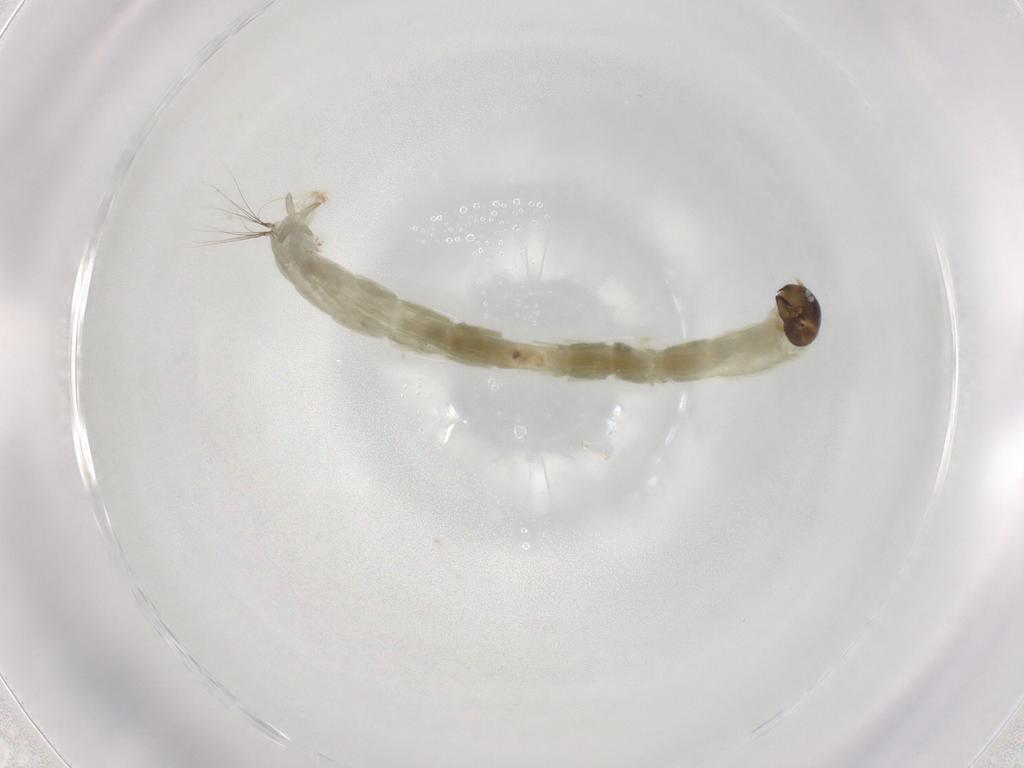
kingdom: Animalia
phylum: Arthropoda
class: Insecta
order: Diptera
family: Chironomidae
